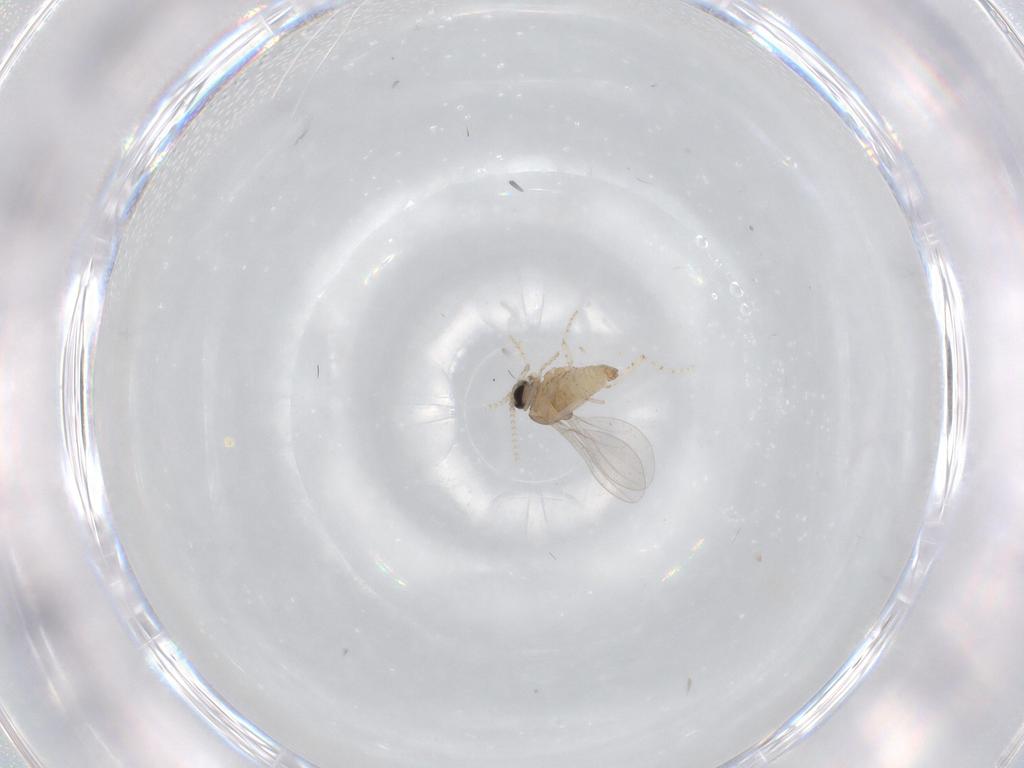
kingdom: Animalia
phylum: Arthropoda
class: Insecta
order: Diptera
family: Cecidomyiidae
